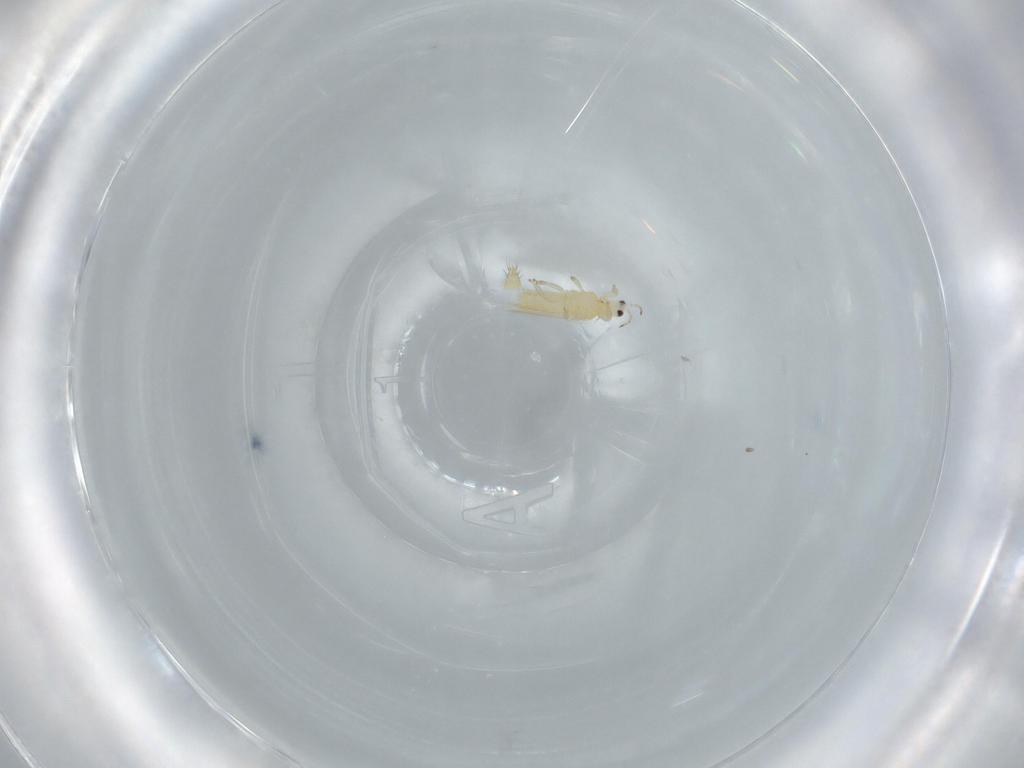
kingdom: Animalia
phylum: Arthropoda
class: Insecta
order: Thysanoptera
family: Thripidae
